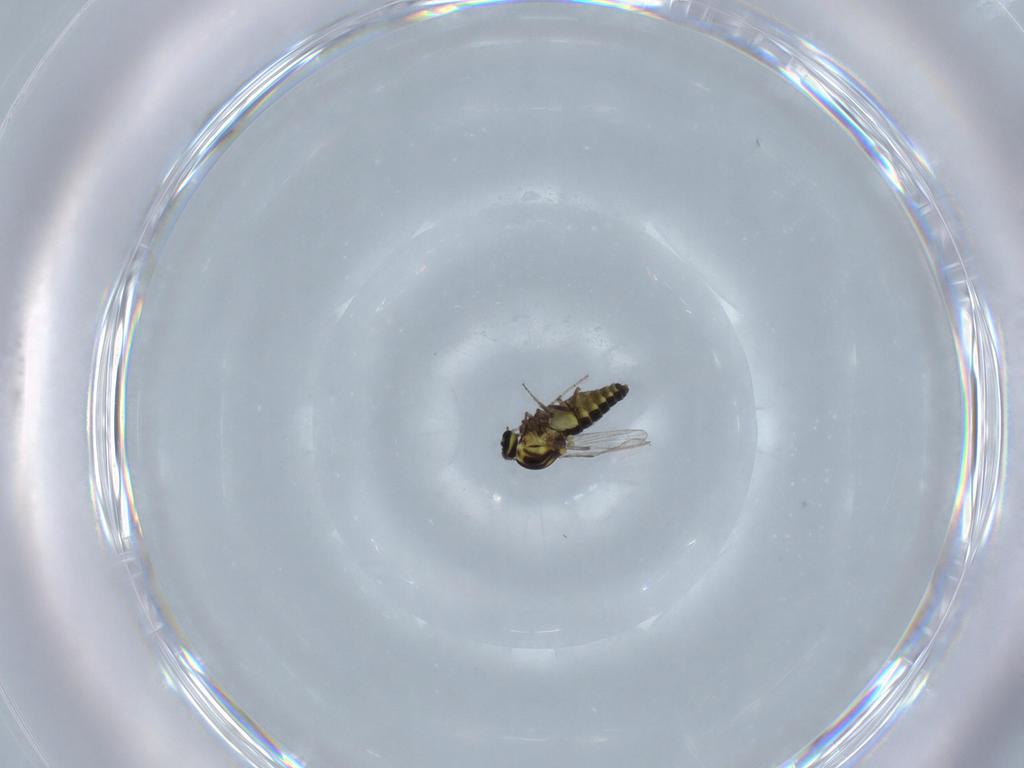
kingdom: Animalia
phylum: Arthropoda
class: Insecta
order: Diptera
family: Ceratopogonidae
